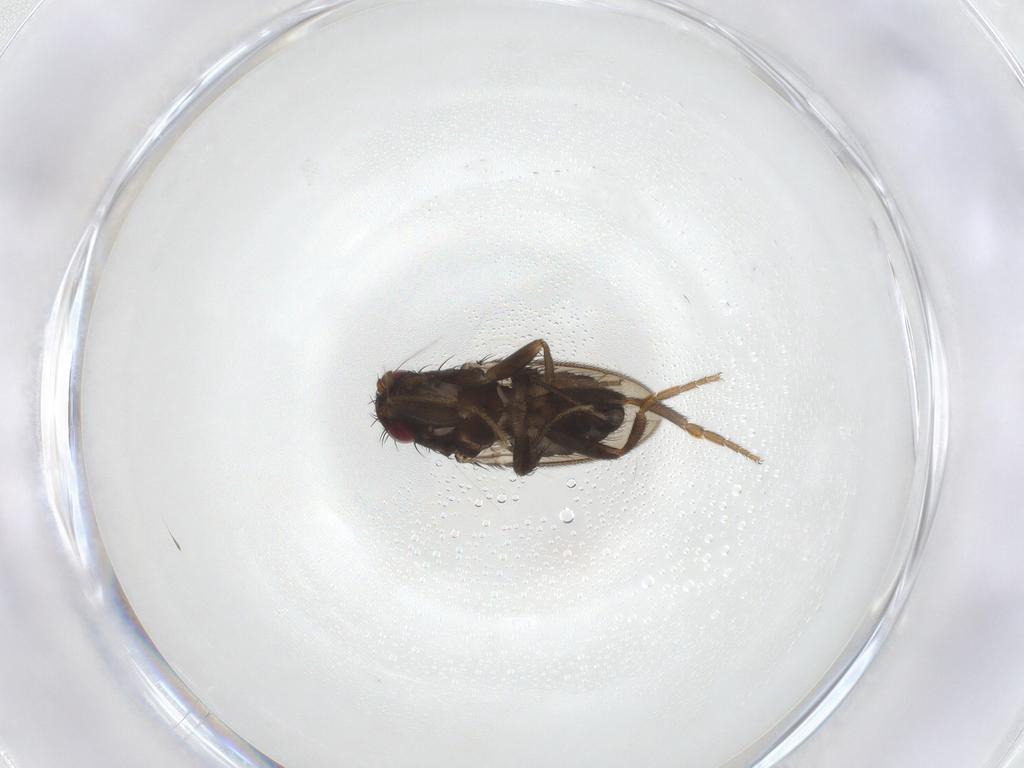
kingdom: Animalia
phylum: Arthropoda
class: Insecta
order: Diptera
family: Sphaeroceridae
